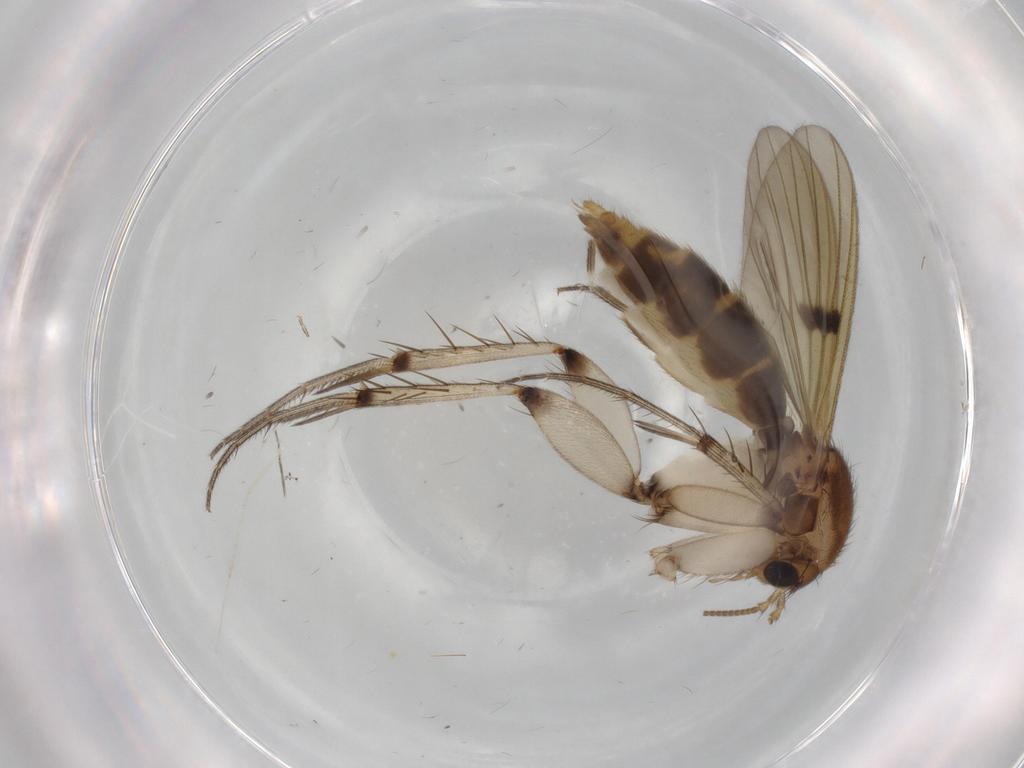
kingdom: Animalia
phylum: Arthropoda
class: Insecta
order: Diptera
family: Mycetophilidae
